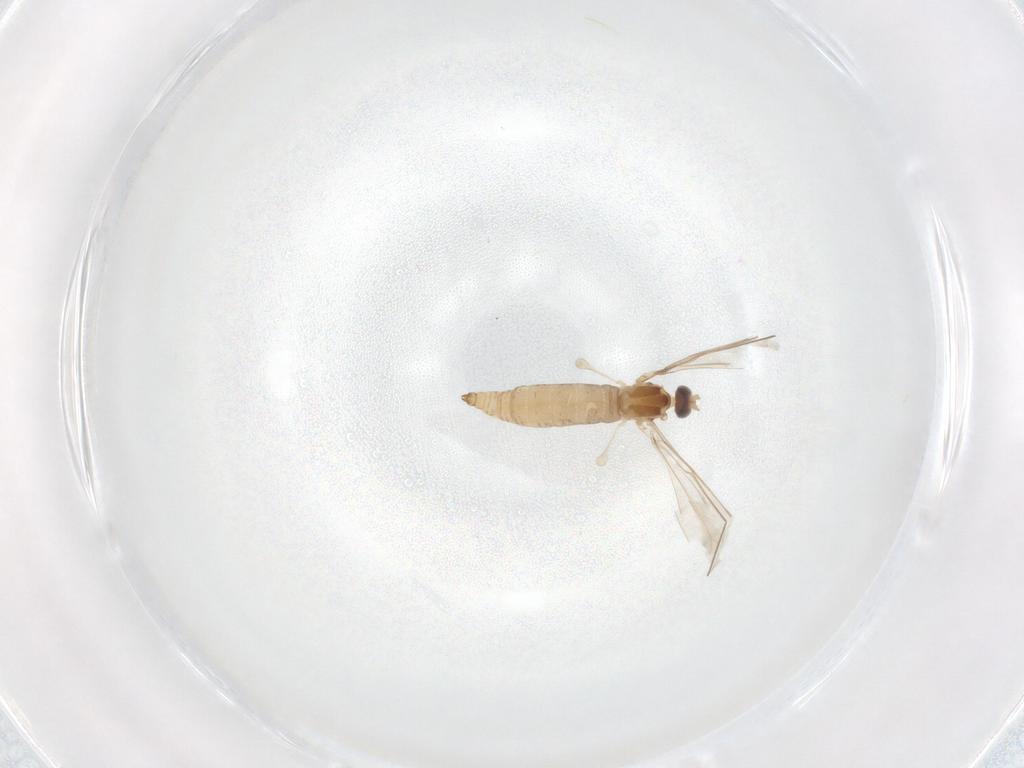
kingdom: Animalia
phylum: Arthropoda
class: Insecta
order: Diptera
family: Cecidomyiidae
